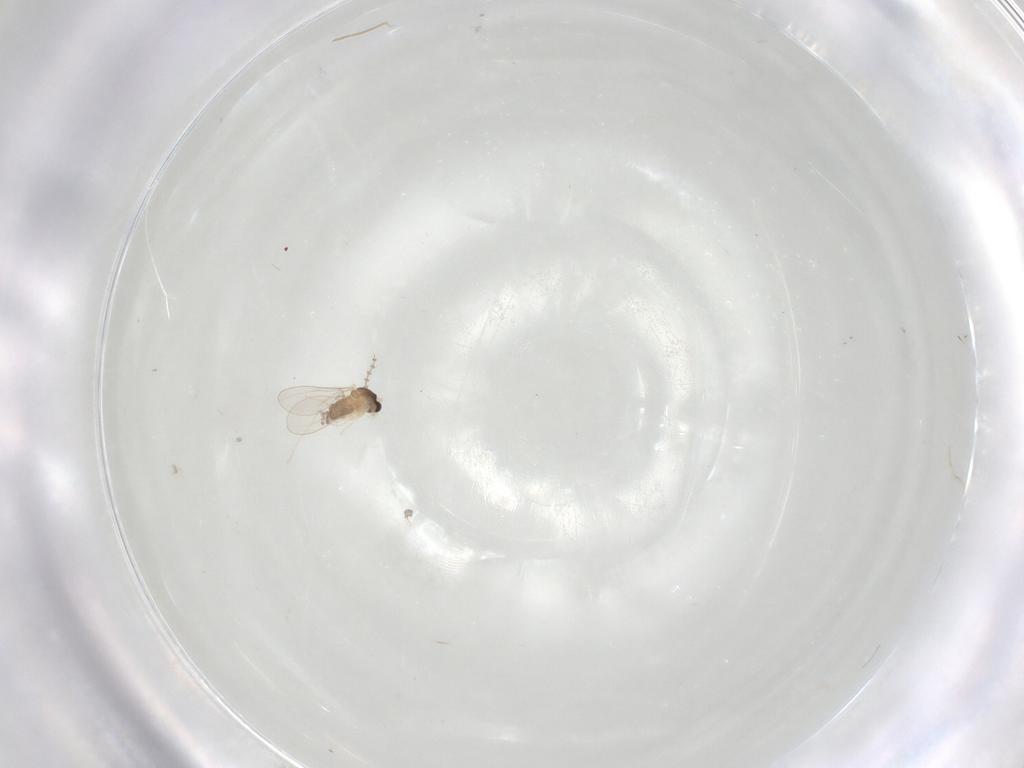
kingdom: Animalia
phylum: Arthropoda
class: Insecta
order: Diptera
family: Cecidomyiidae
